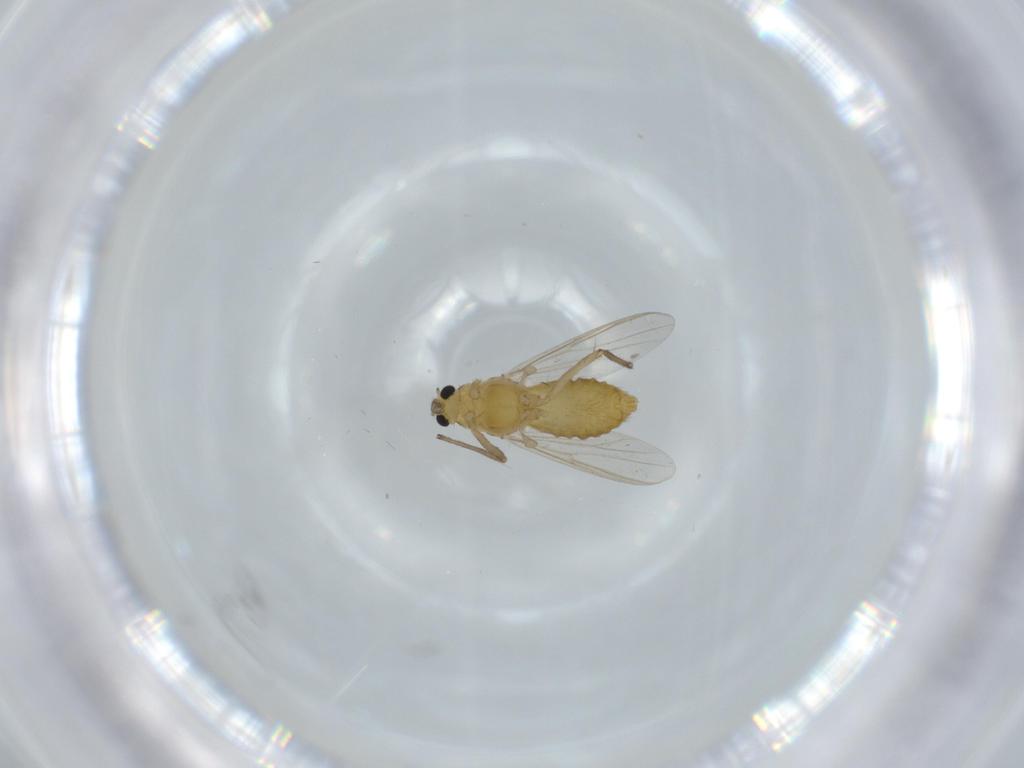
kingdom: Animalia
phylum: Arthropoda
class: Insecta
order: Diptera
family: Chironomidae
